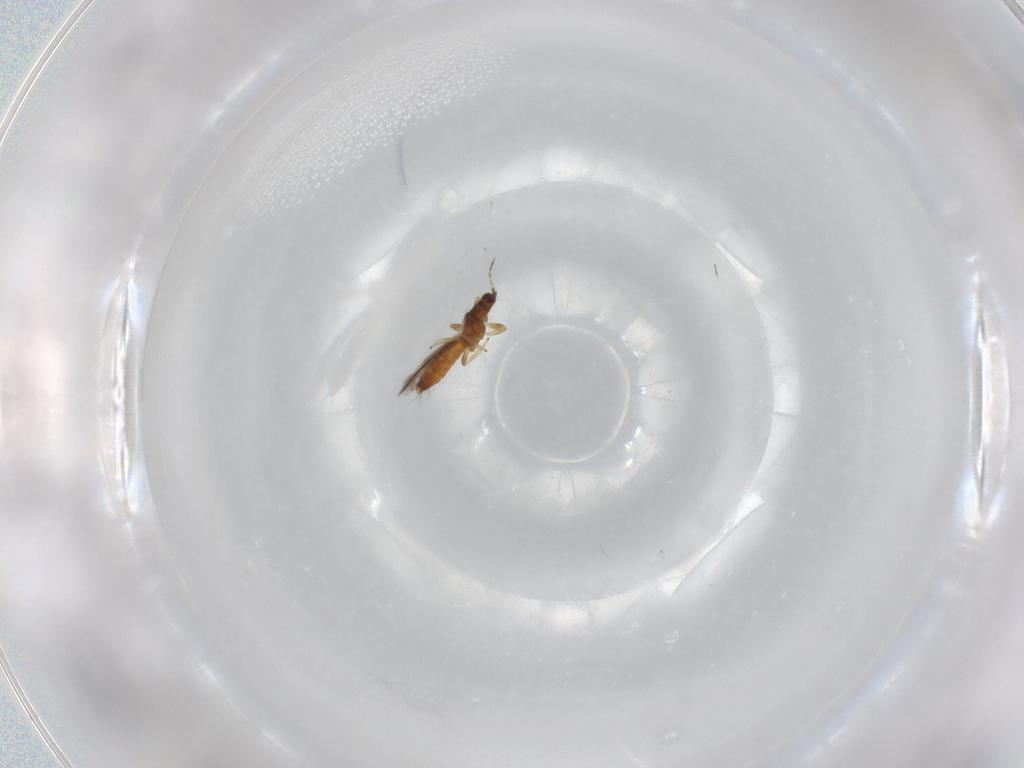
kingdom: Animalia
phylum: Arthropoda
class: Insecta
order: Thysanoptera
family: Thripidae
